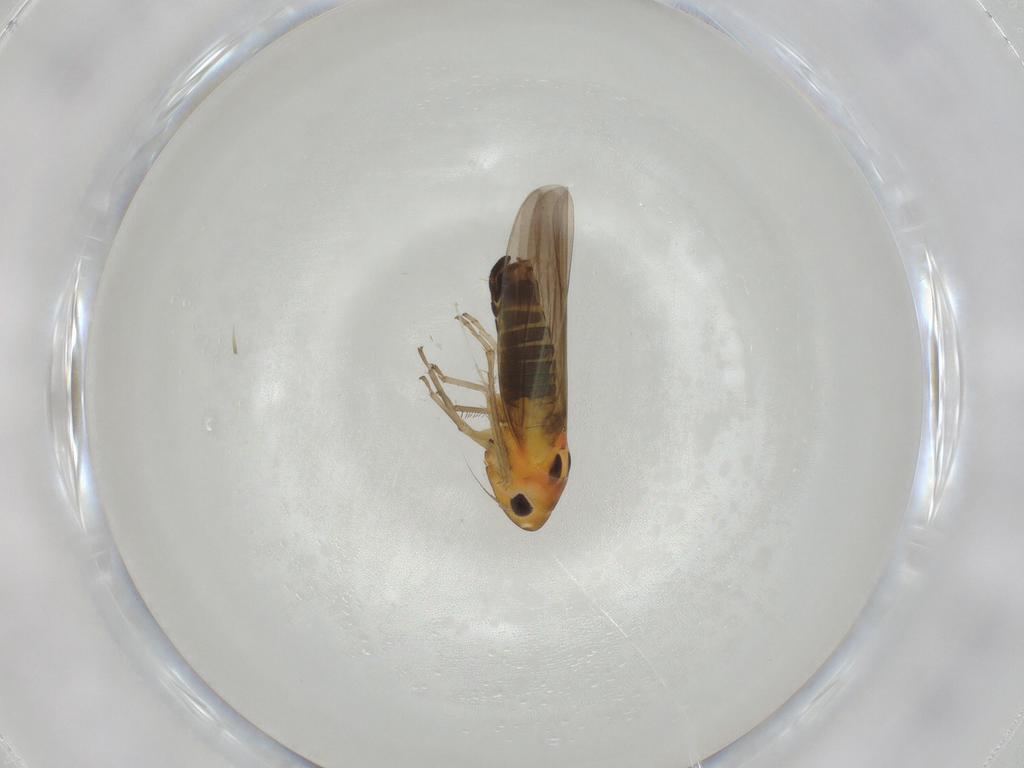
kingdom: Animalia
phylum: Arthropoda
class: Insecta
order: Hemiptera
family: Cicadellidae
